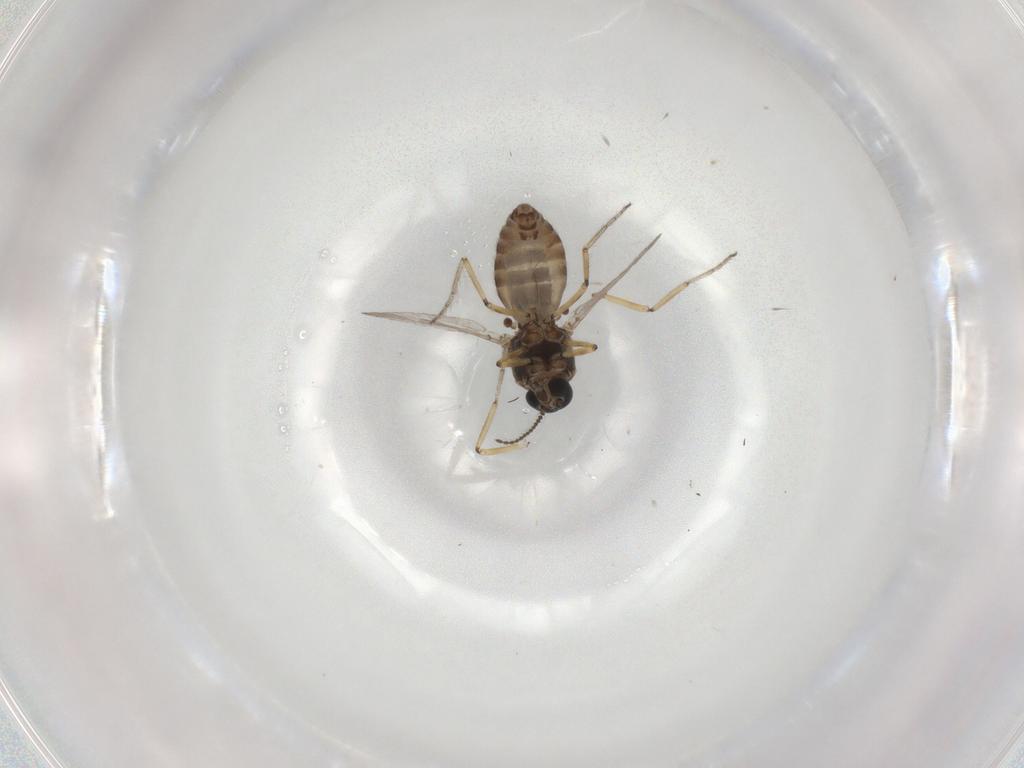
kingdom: Animalia
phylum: Arthropoda
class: Insecta
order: Diptera
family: Ceratopogonidae
